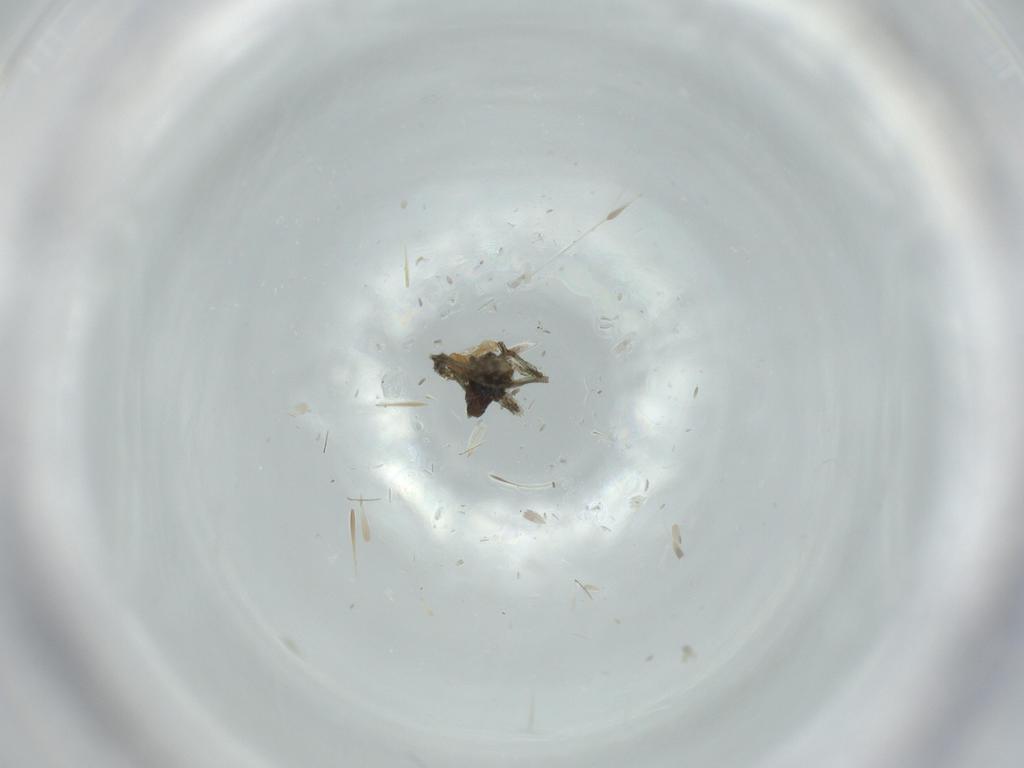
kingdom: Animalia
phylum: Arthropoda
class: Arachnida
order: Araneae
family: Linyphiidae
